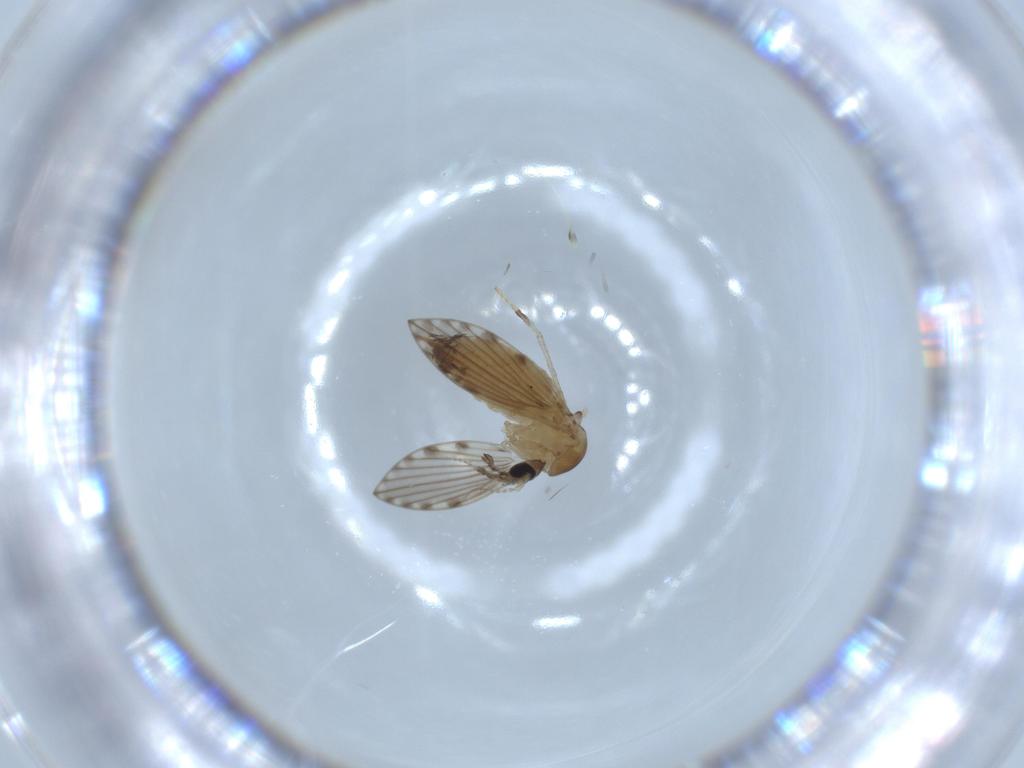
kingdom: Animalia
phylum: Arthropoda
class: Insecta
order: Diptera
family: Psychodidae
